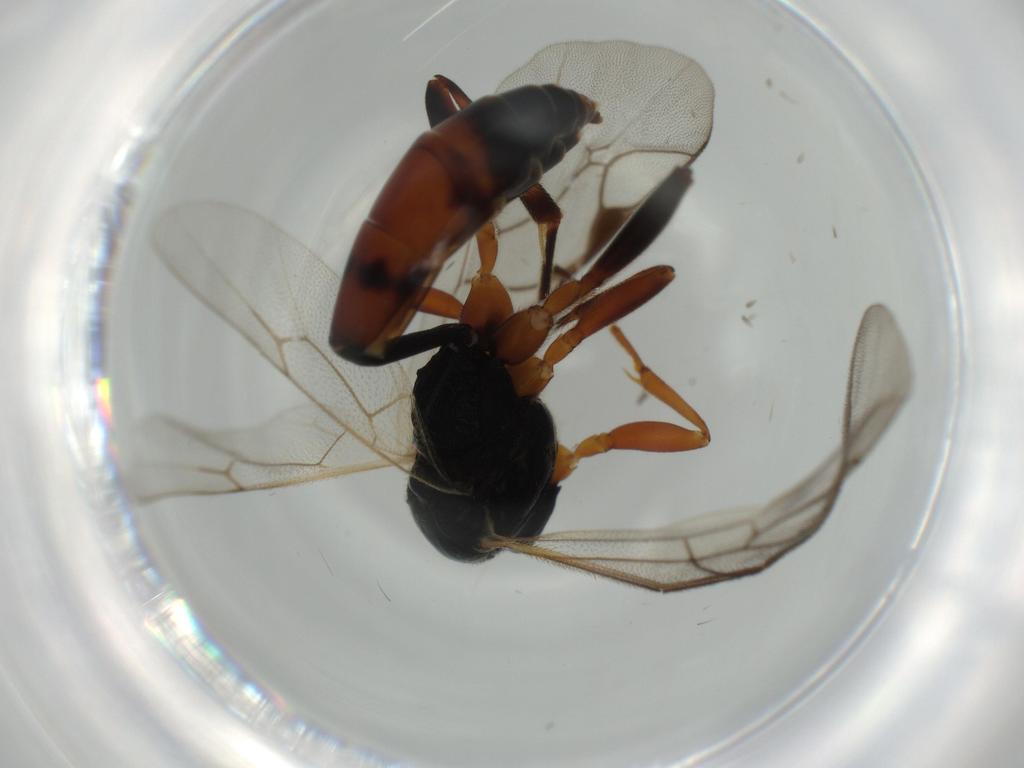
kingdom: Animalia
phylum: Arthropoda
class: Insecta
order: Hymenoptera
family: Ichneumonidae
